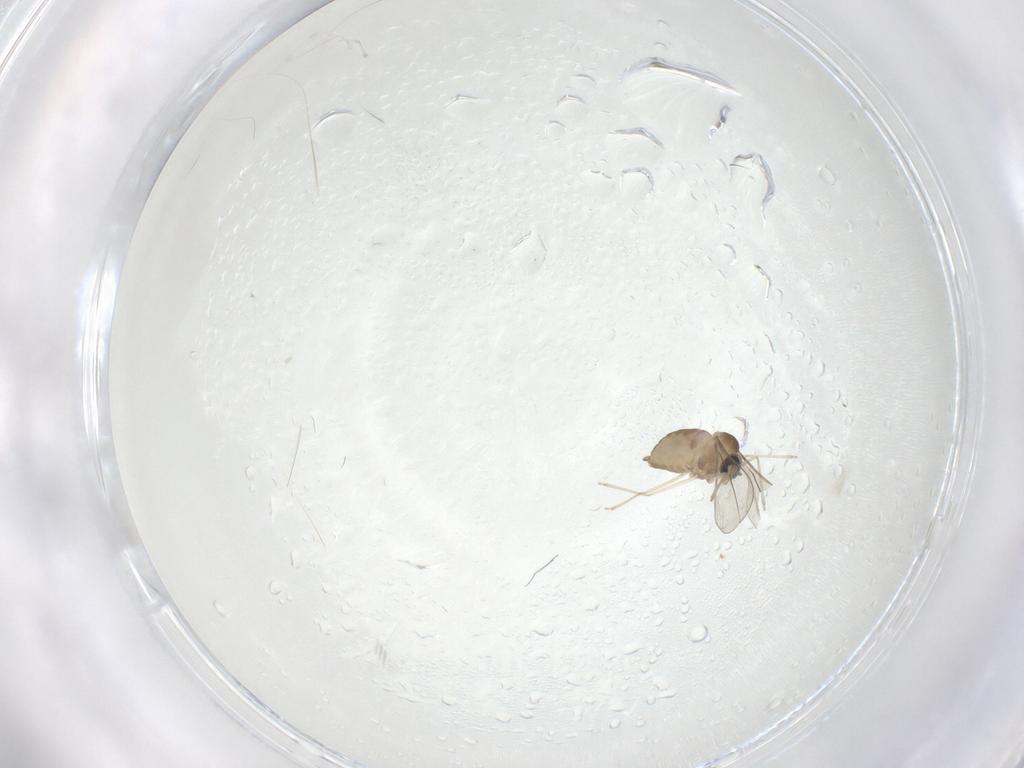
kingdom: Animalia
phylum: Arthropoda
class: Insecta
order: Diptera
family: Cecidomyiidae
